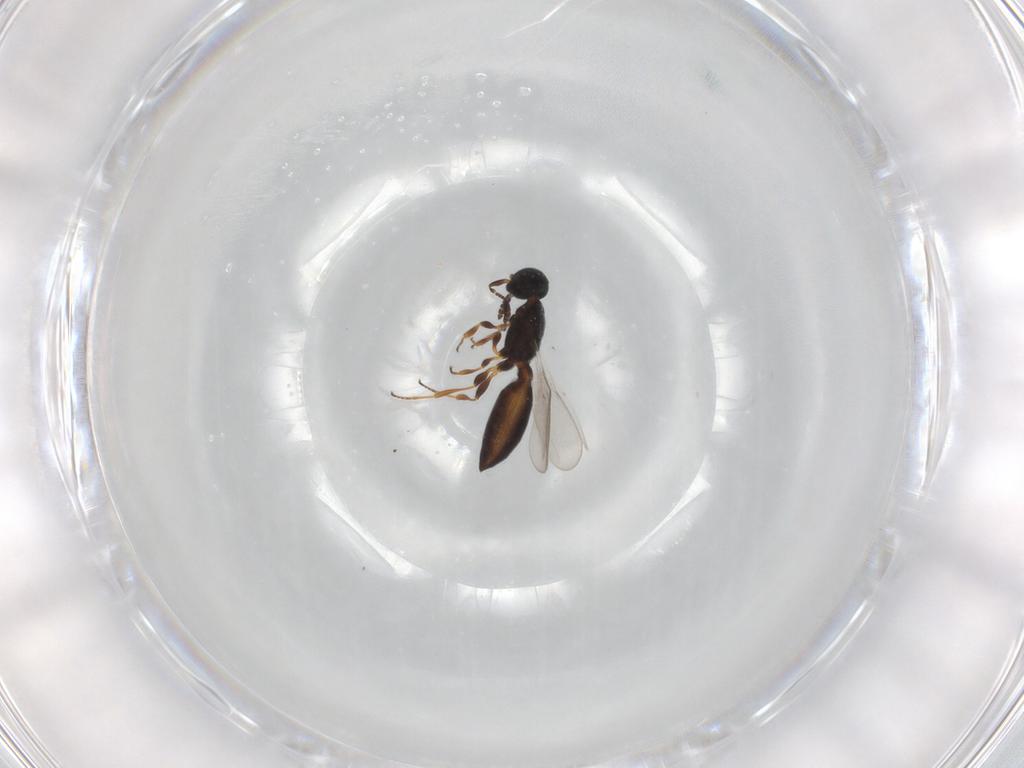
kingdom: Animalia
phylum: Arthropoda
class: Insecta
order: Hymenoptera
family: Scelionidae
